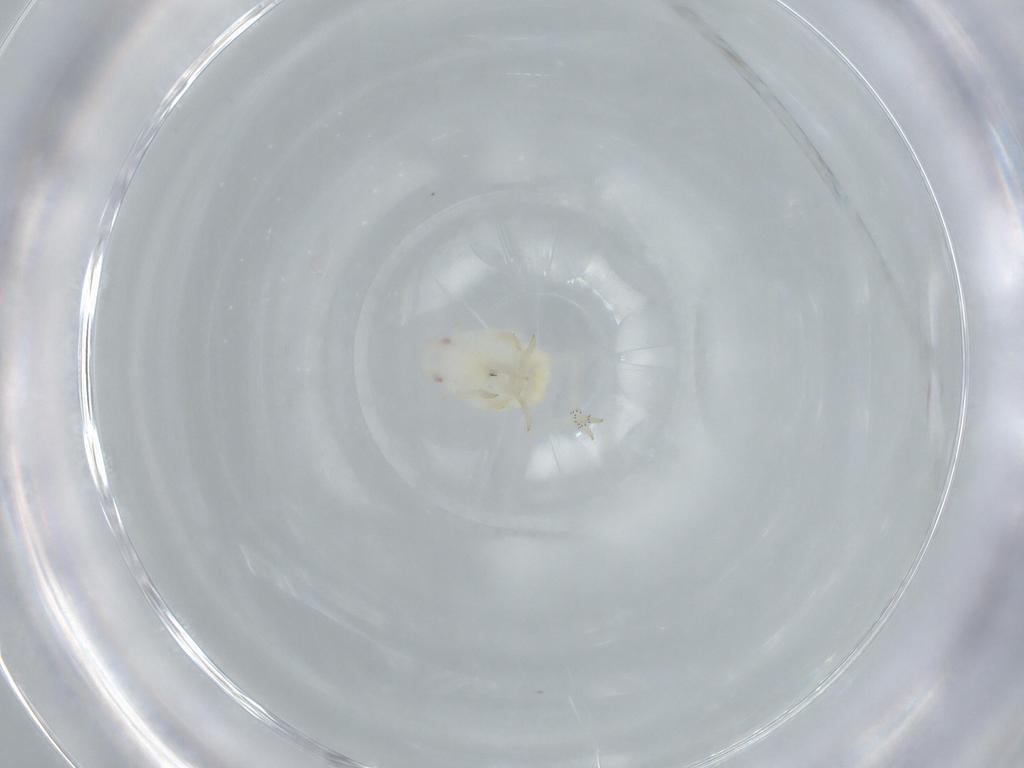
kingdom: Animalia
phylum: Arthropoda
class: Insecta
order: Hemiptera
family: Flatidae
